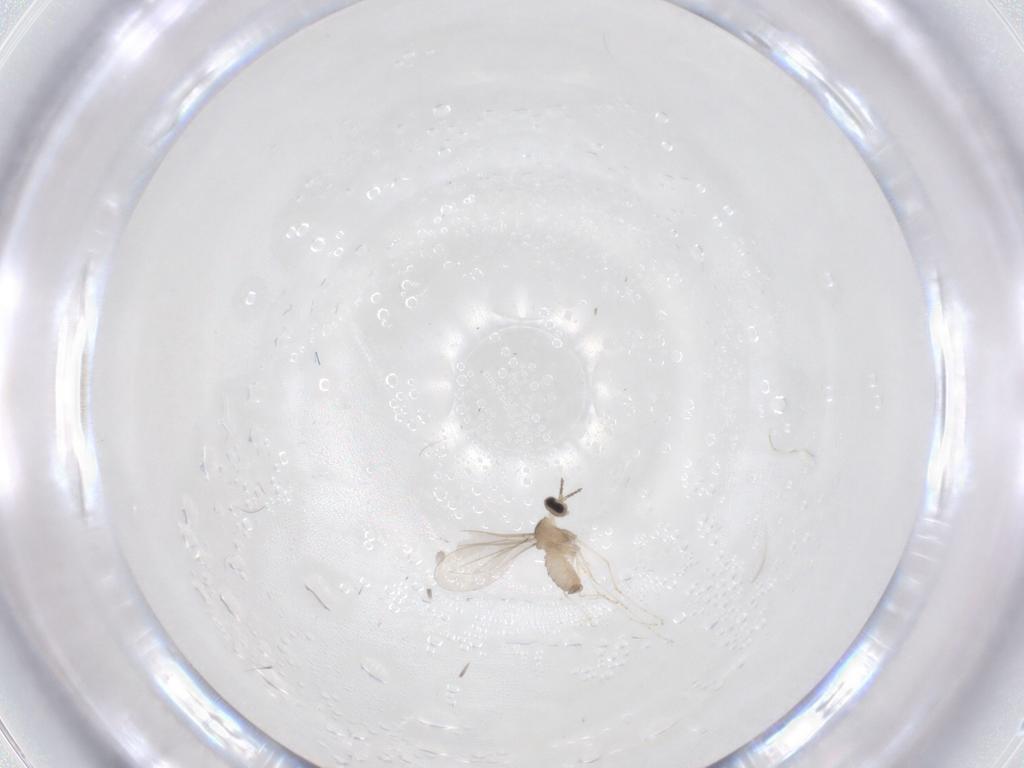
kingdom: Animalia
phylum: Arthropoda
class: Insecta
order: Diptera
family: Cecidomyiidae
